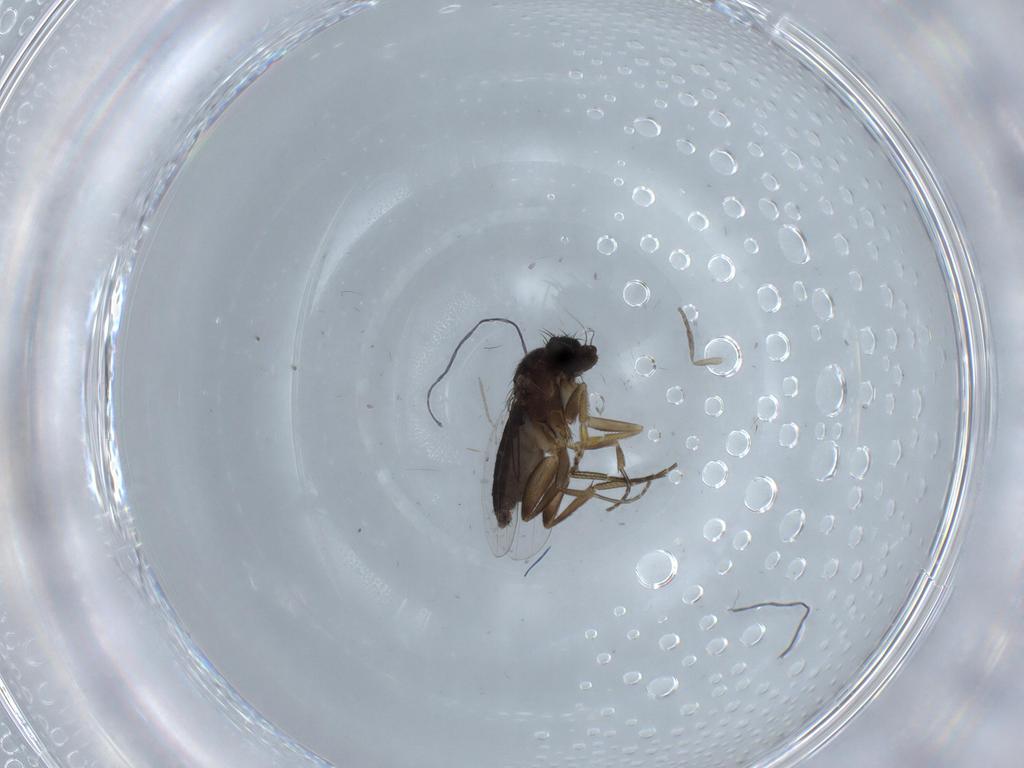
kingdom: Animalia
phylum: Arthropoda
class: Insecta
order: Diptera
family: Phoridae
